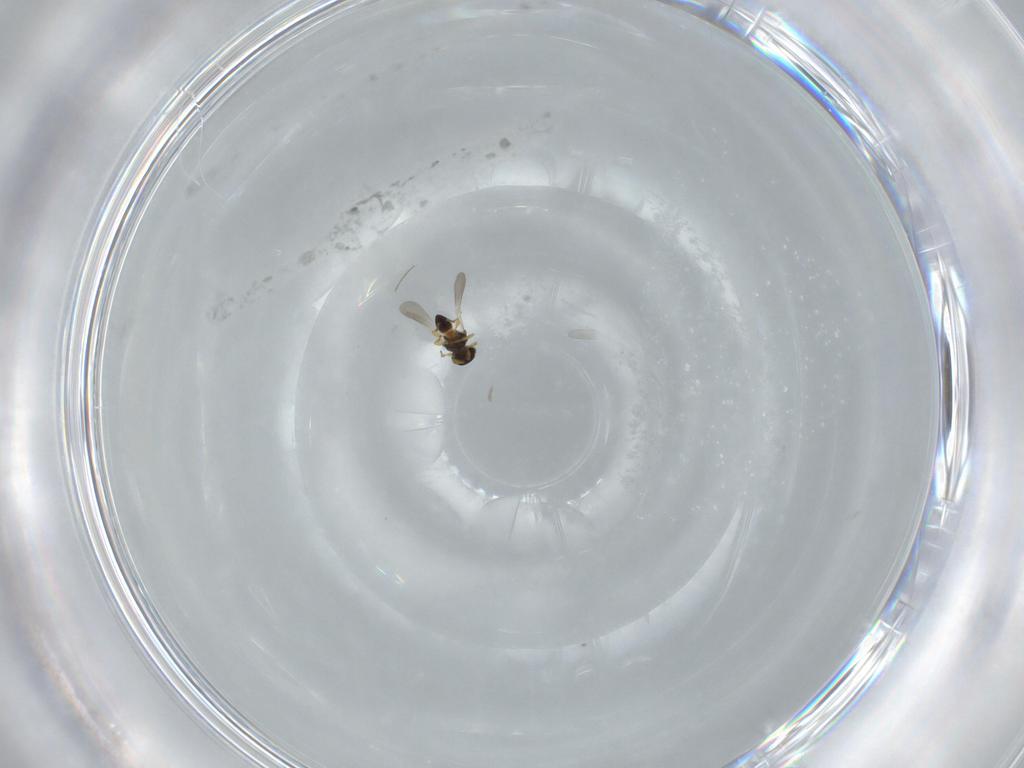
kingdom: Animalia
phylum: Arthropoda
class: Insecta
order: Hymenoptera
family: Platygastridae
